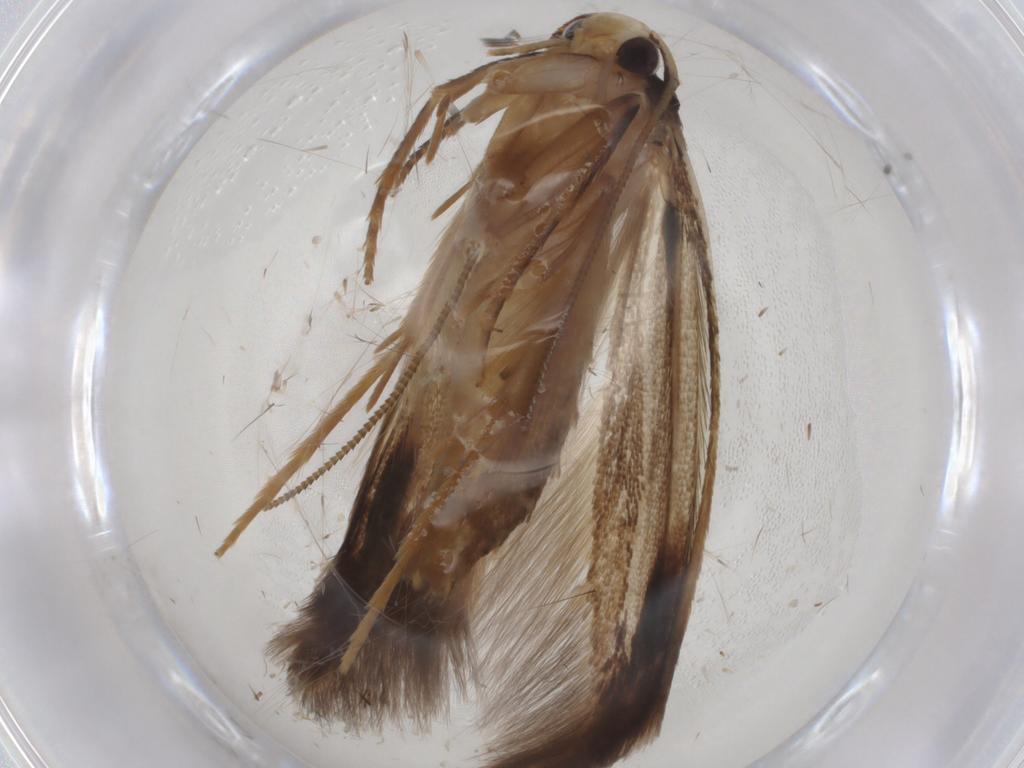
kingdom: Animalia
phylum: Arthropoda
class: Insecta
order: Lepidoptera
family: Tineidae
